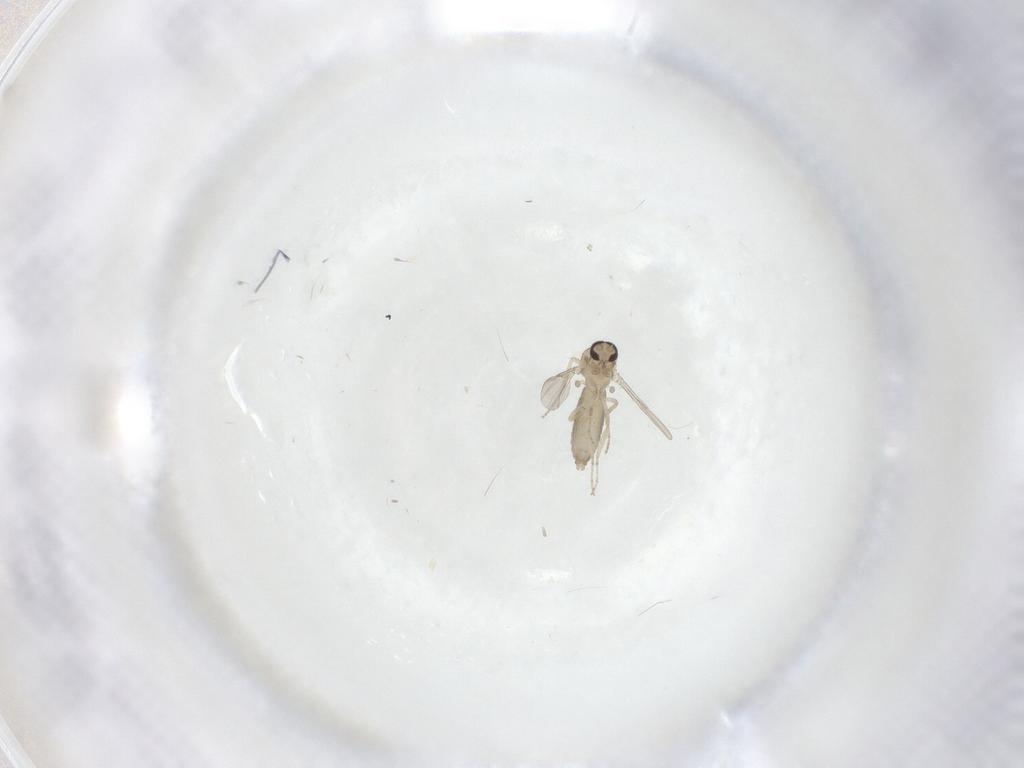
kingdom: Animalia
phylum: Arthropoda
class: Insecta
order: Diptera
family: Ceratopogonidae
